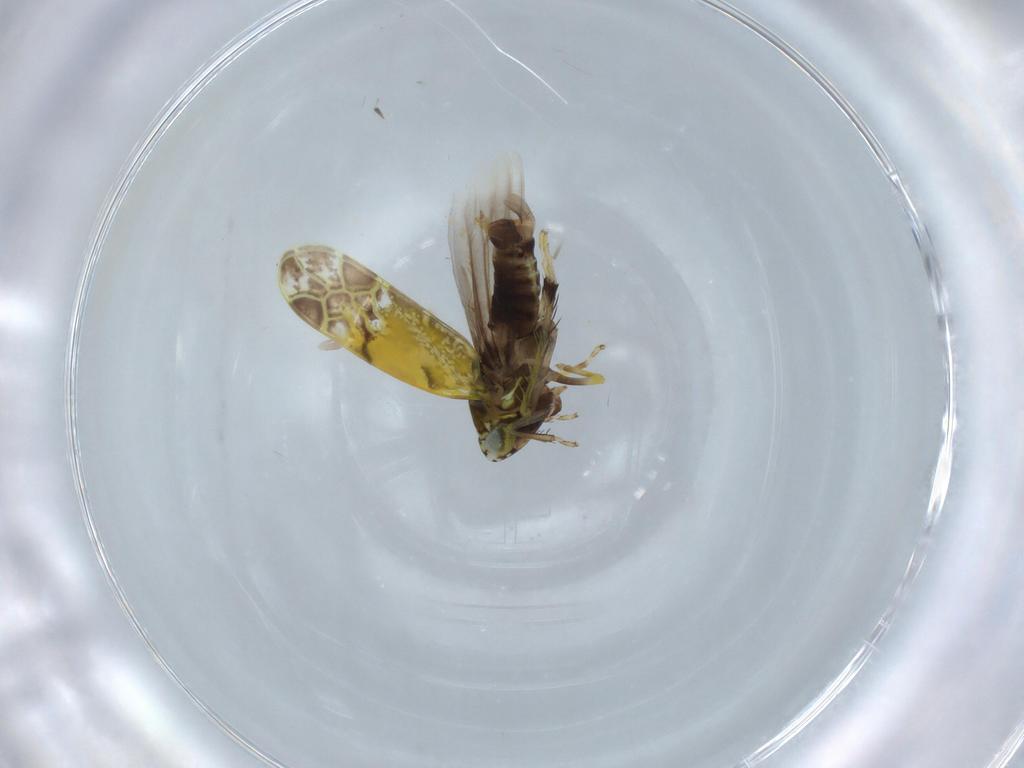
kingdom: Animalia
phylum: Arthropoda
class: Insecta
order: Hemiptera
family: Cicadellidae
